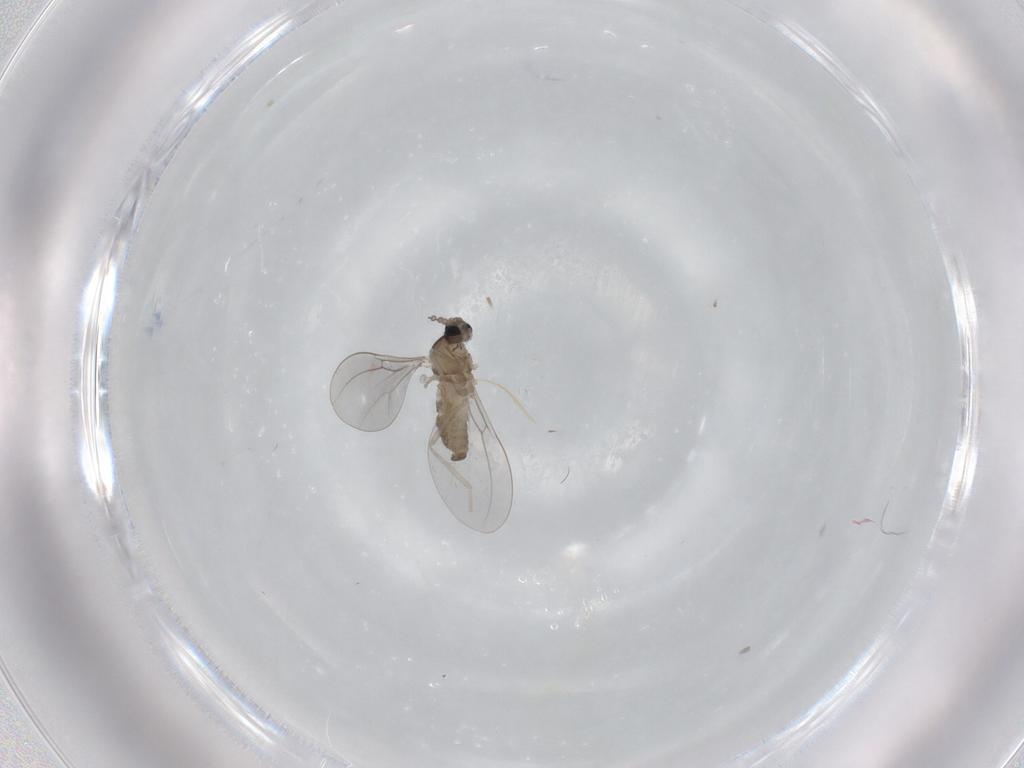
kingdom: Animalia
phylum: Arthropoda
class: Insecta
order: Diptera
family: Cecidomyiidae
